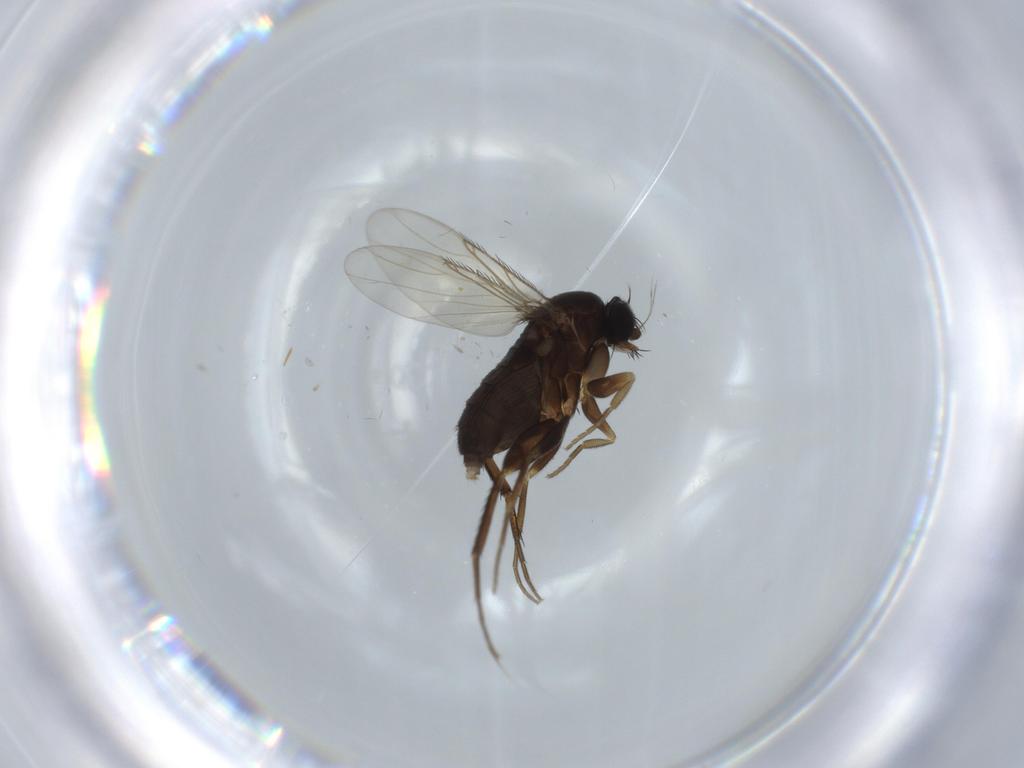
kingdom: Animalia
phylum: Arthropoda
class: Insecta
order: Diptera
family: Phoridae
